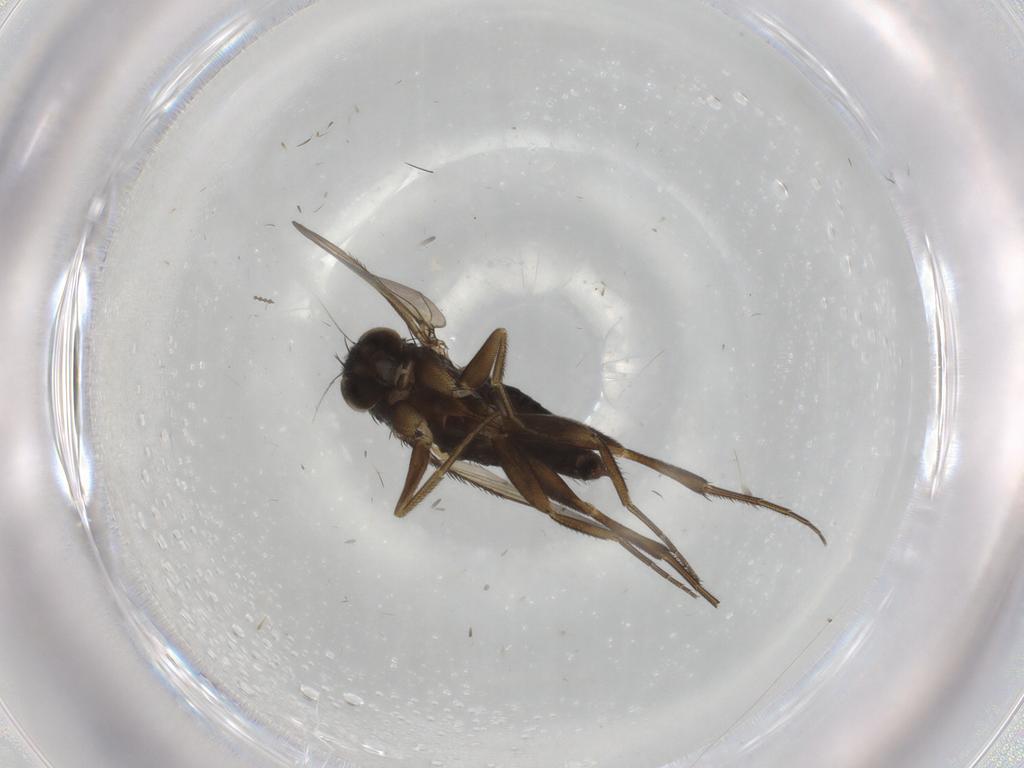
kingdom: Animalia
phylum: Arthropoda
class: Insecta
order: Diptera
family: Phoridae
